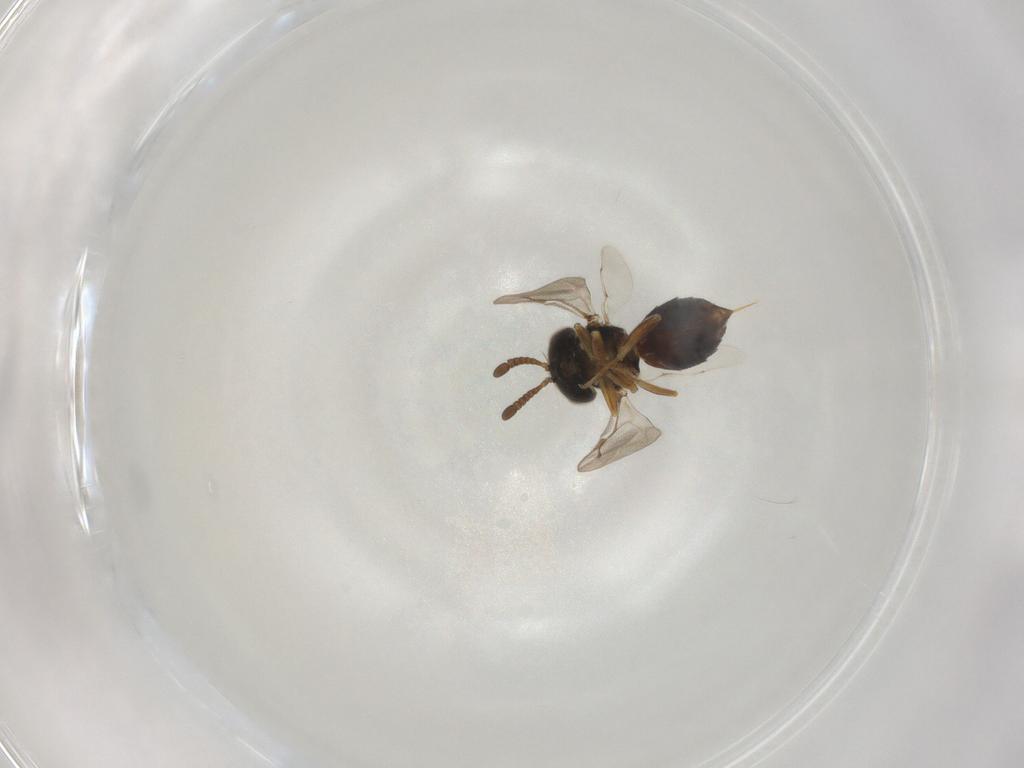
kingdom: Animalia
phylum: Arthropoda
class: Insecta
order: Hymenoptera
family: Pteromalidae
